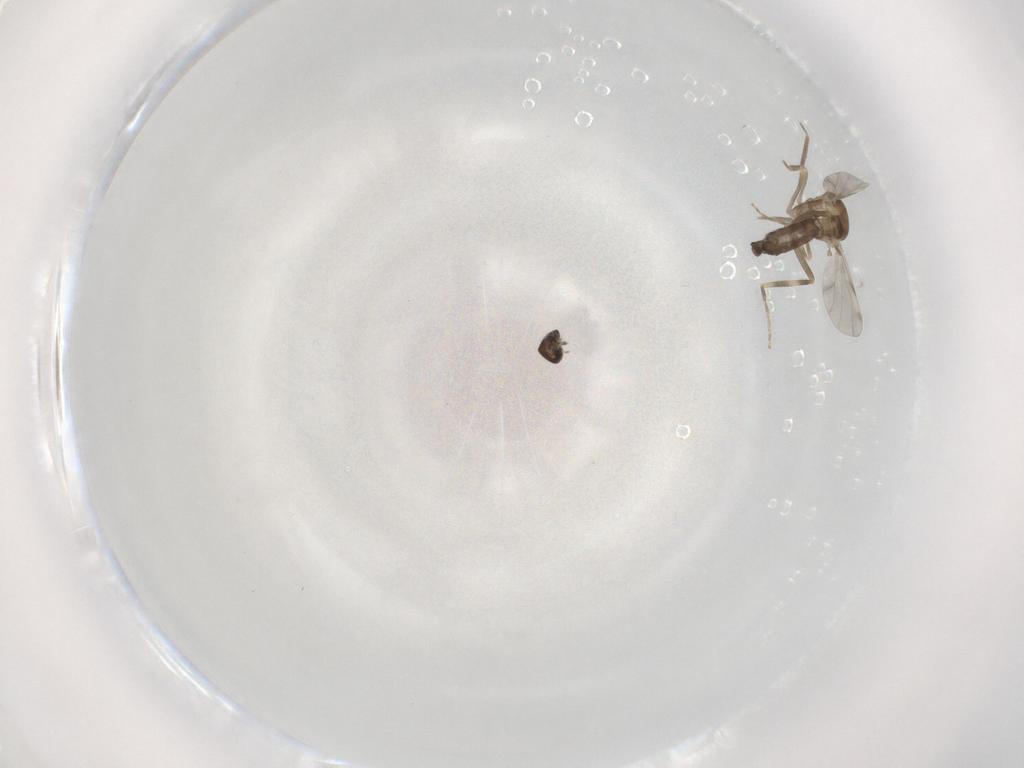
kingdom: Animalia
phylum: Arthropoda
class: Insecta
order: Diptera
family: Ceratopogonidae
